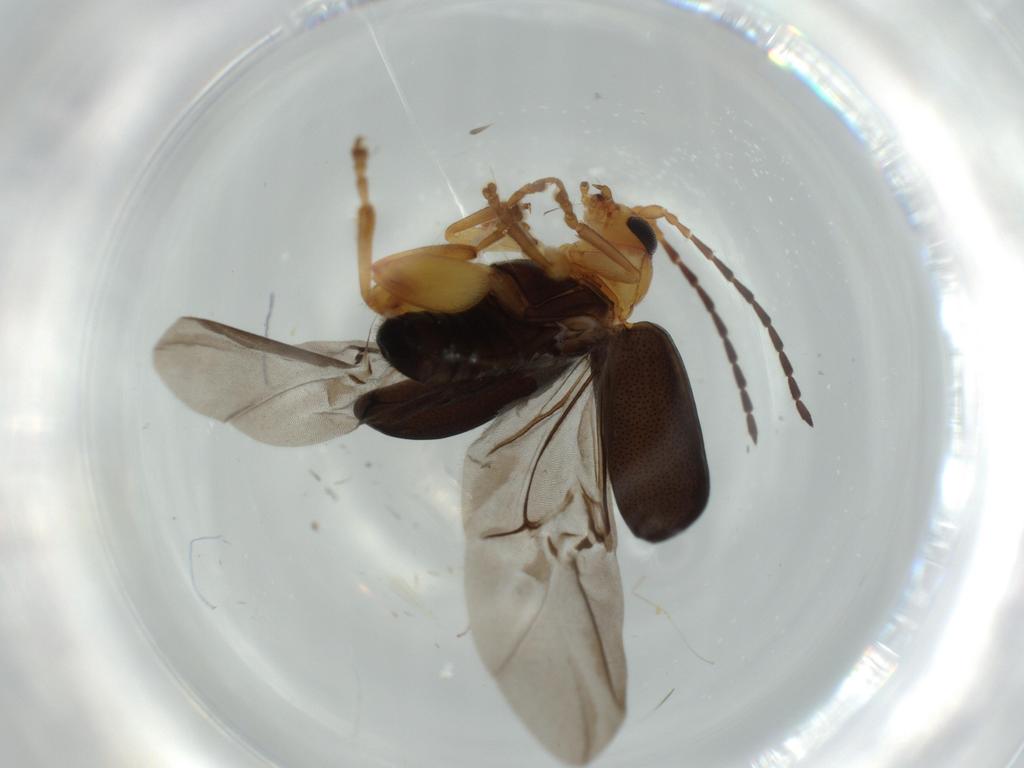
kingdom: Animalia
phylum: Arthropoda
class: Insecta
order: Coleoptera
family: Chrysomelidae
